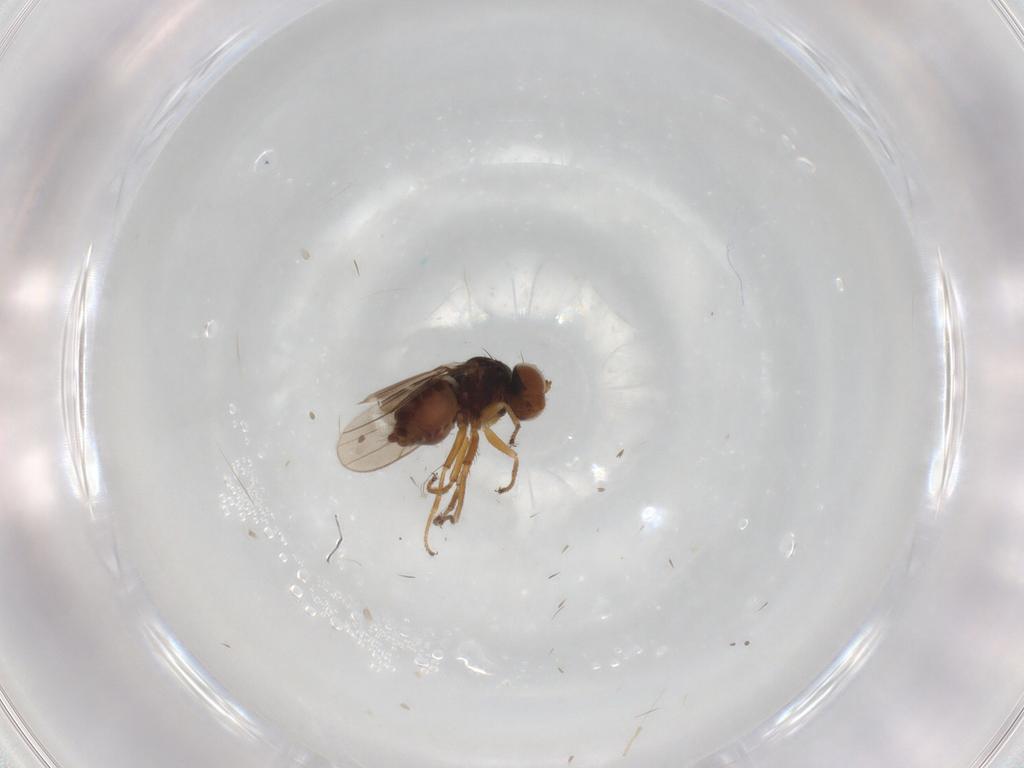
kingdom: Animalia
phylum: Arthropoda
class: Insecta
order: Diptera
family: Ephydridae
